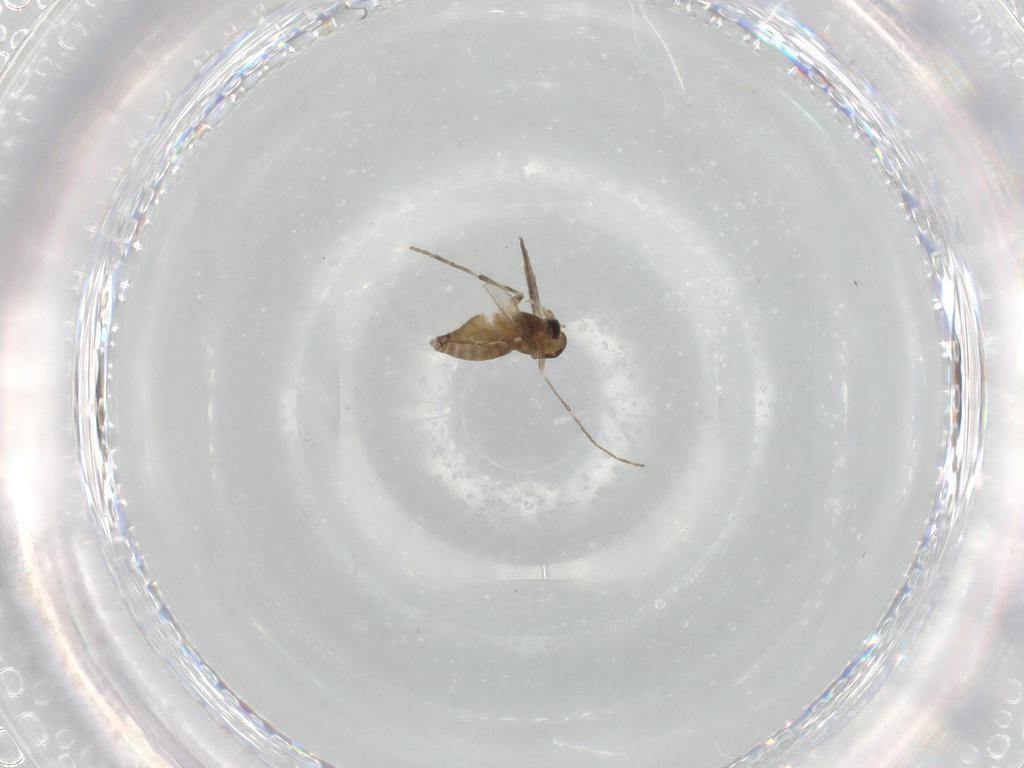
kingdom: Animalia
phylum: Arthropoda
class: Insecta
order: Diptera
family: Chironomidae
